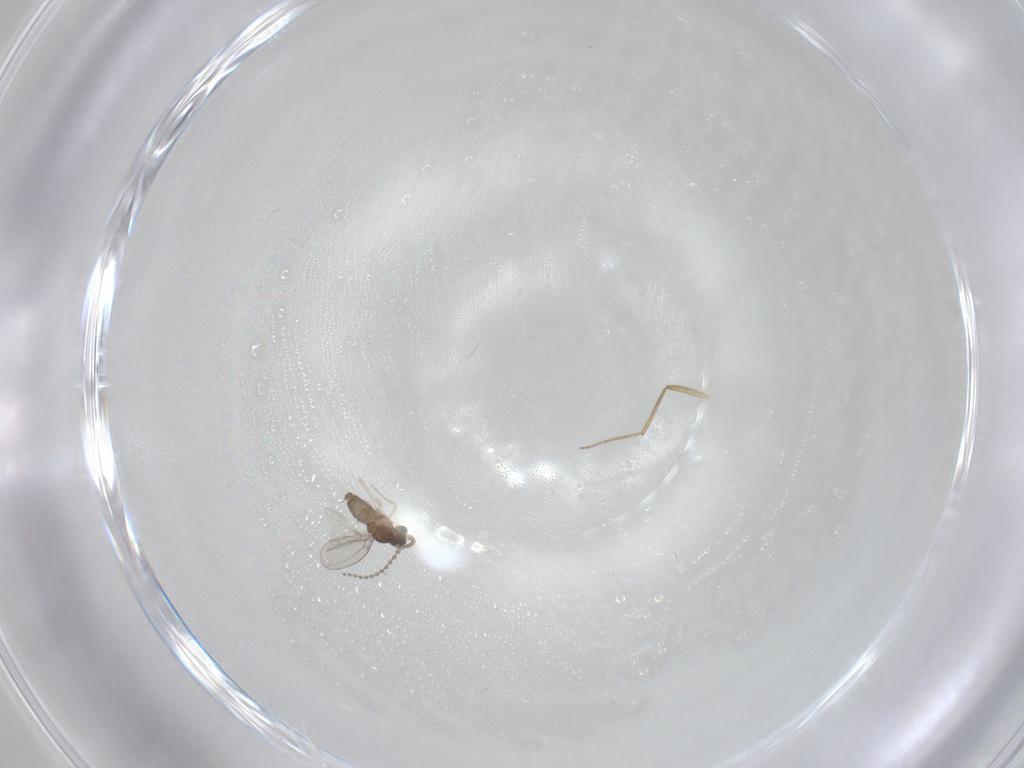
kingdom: Animalia
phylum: Arthropoda
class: Insecta
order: Diptera
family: Cecidomyiidae
